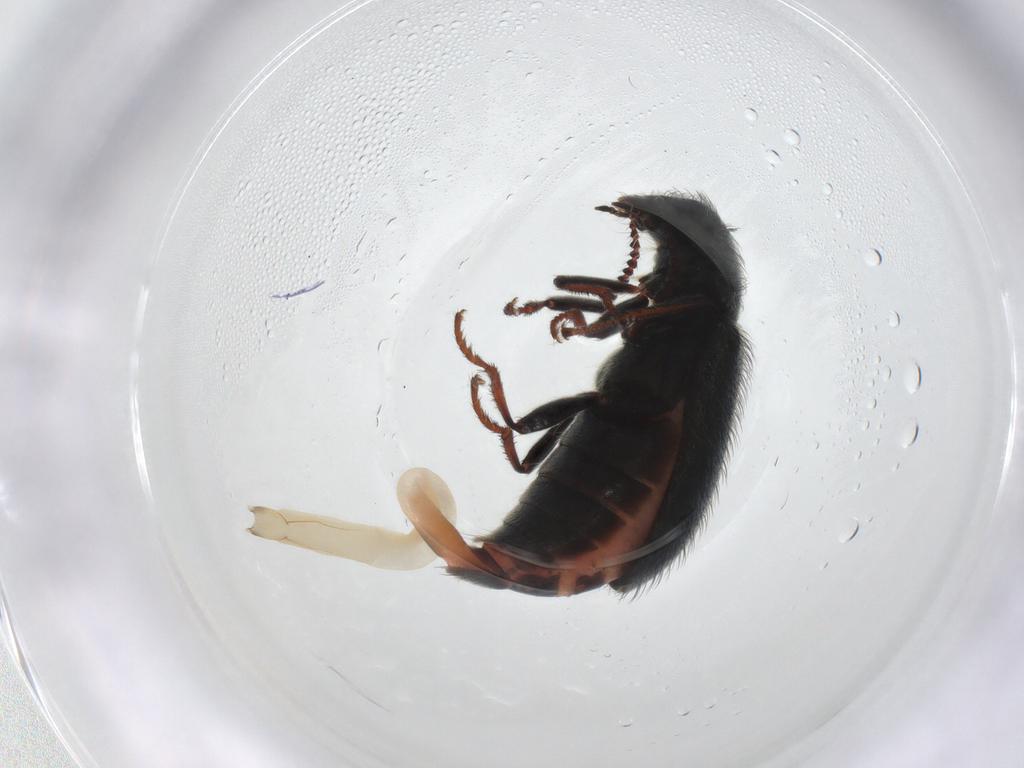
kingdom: Animalia
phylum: Arthropoda
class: Insecta
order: Coleoptera
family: Melyridae
